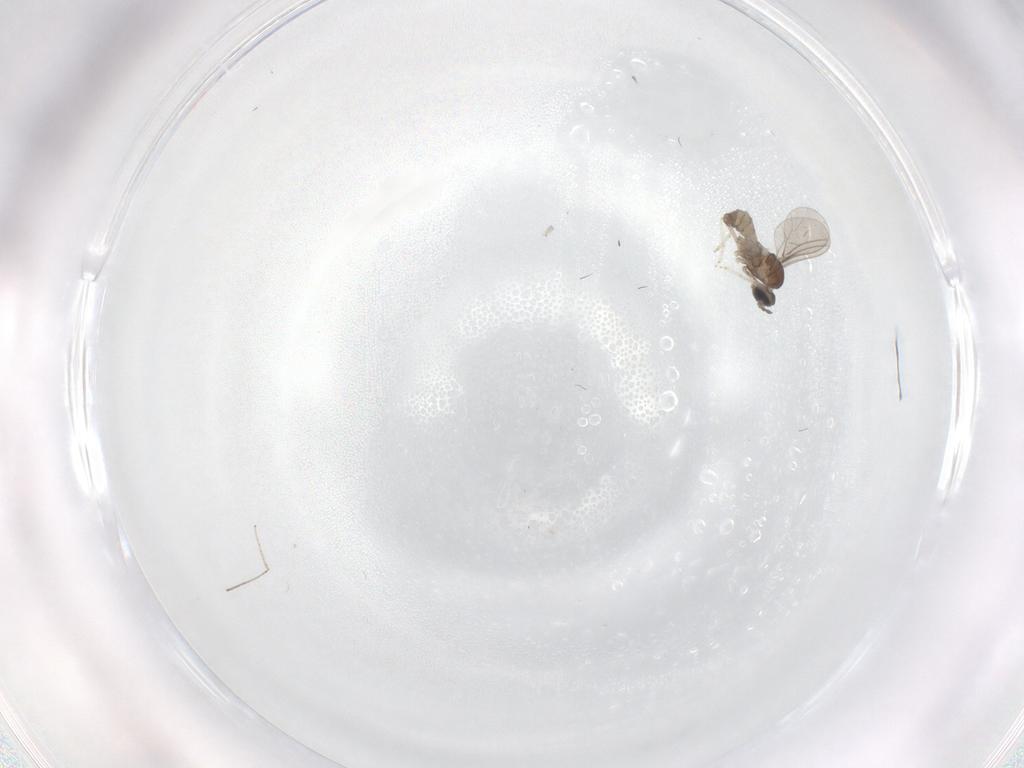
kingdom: Animalia
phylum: Arthropoda
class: Insecta
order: Diptera
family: Cecidomyiidae
